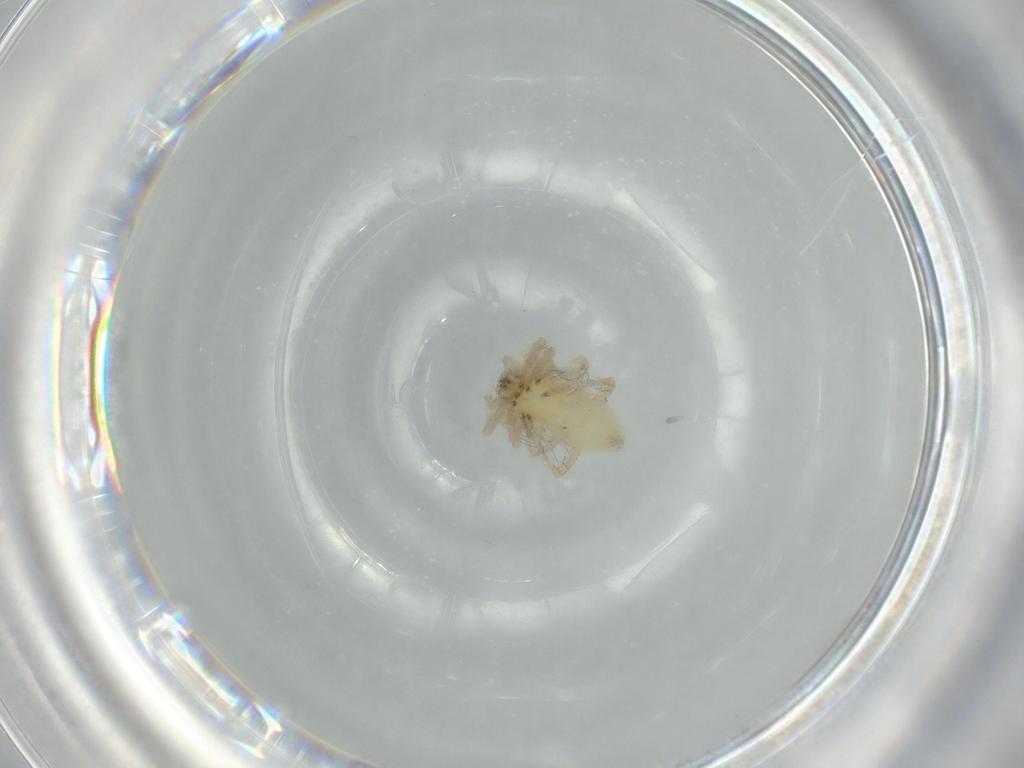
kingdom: Animalia
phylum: Arthropoda
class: Arachnida
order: Araneae
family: Anyphaenidae
